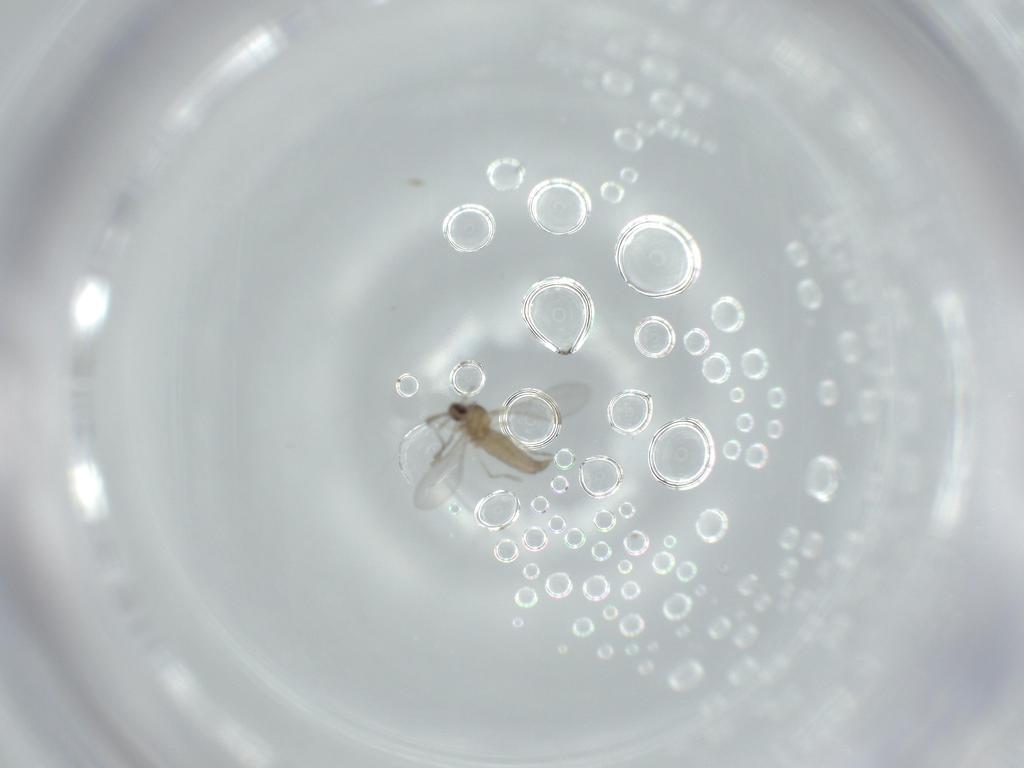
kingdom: Animalia
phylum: Arthropoda
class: Insecta
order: Diptera
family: Cecidomyiidae
